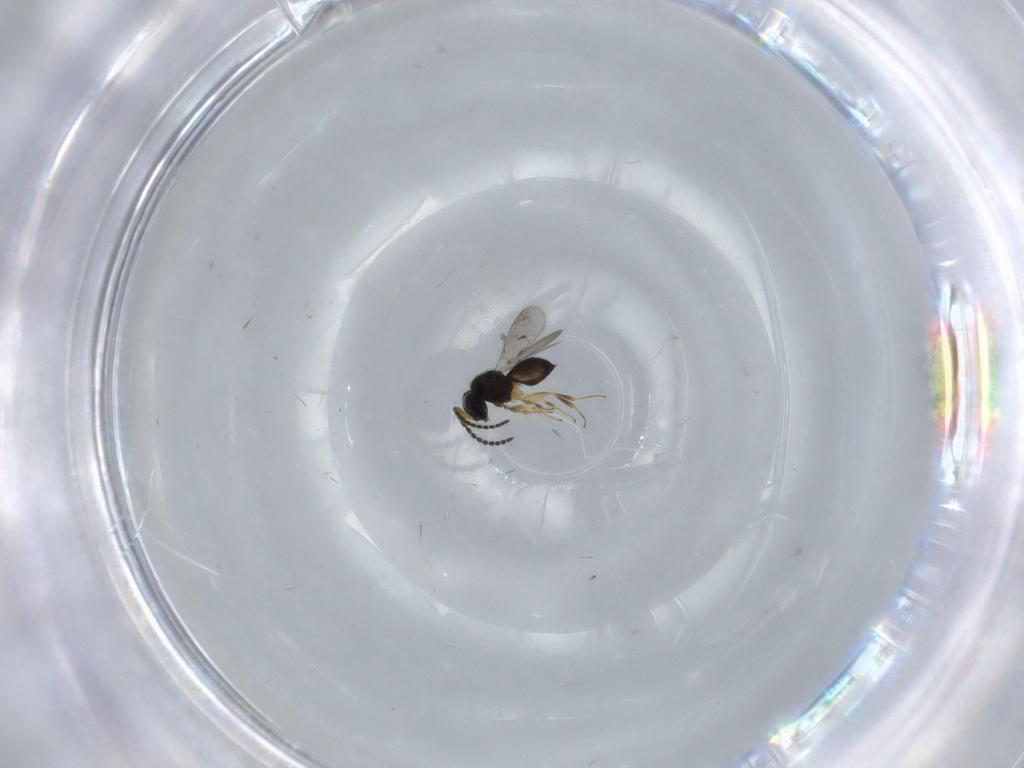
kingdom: Animalia
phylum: Arthropoda
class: Insecta
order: Hymenoptera
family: Scelionidae
